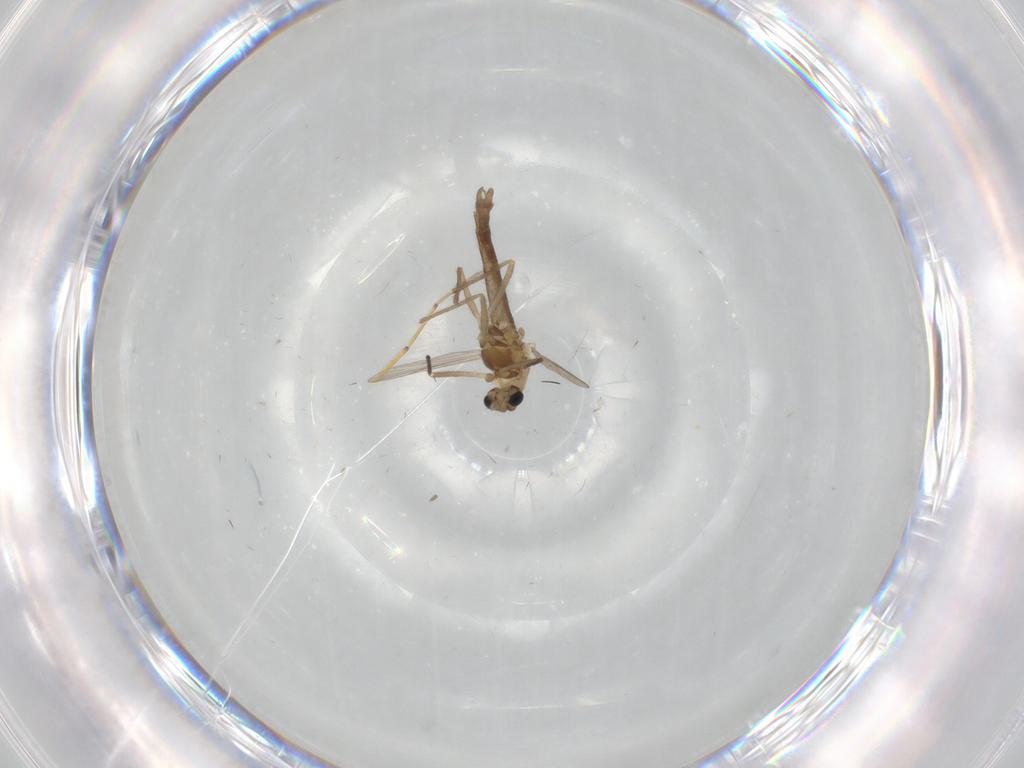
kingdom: Animalia
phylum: Arthropoda
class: Insecta
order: Diptera
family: Chironomidae
